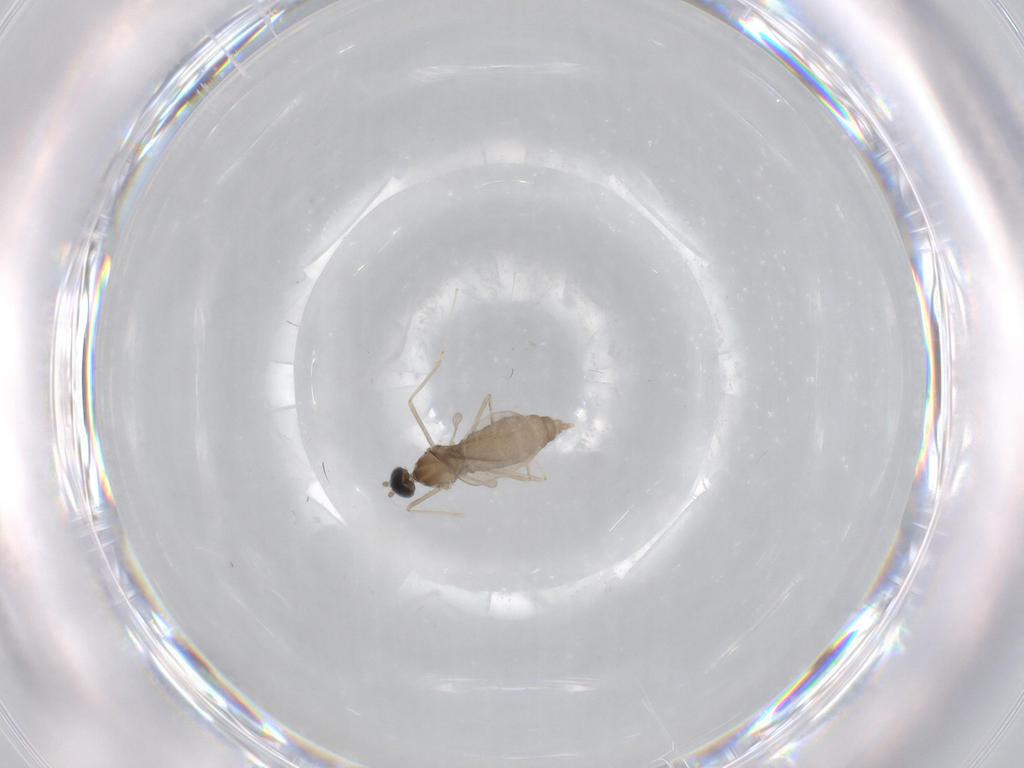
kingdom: Animalia
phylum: Arthropoda
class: Insecta
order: Diptera
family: Cecidomyiidae
